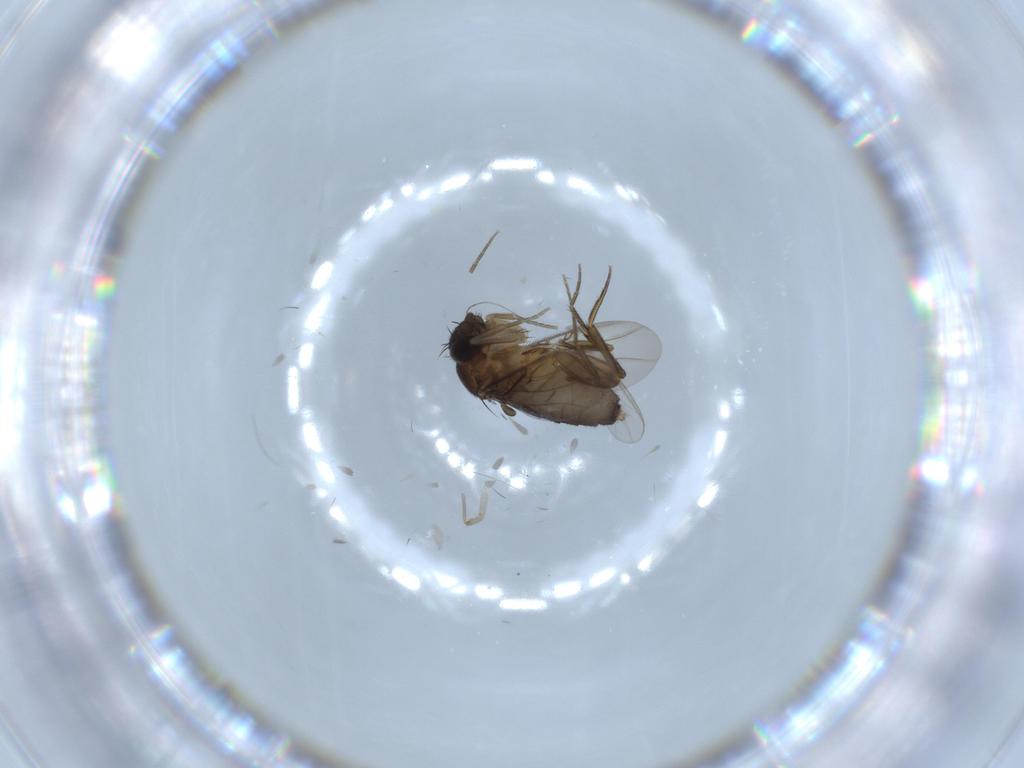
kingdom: Animalia
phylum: Arthropoda
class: Insecta
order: Diptera
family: Phoridae
